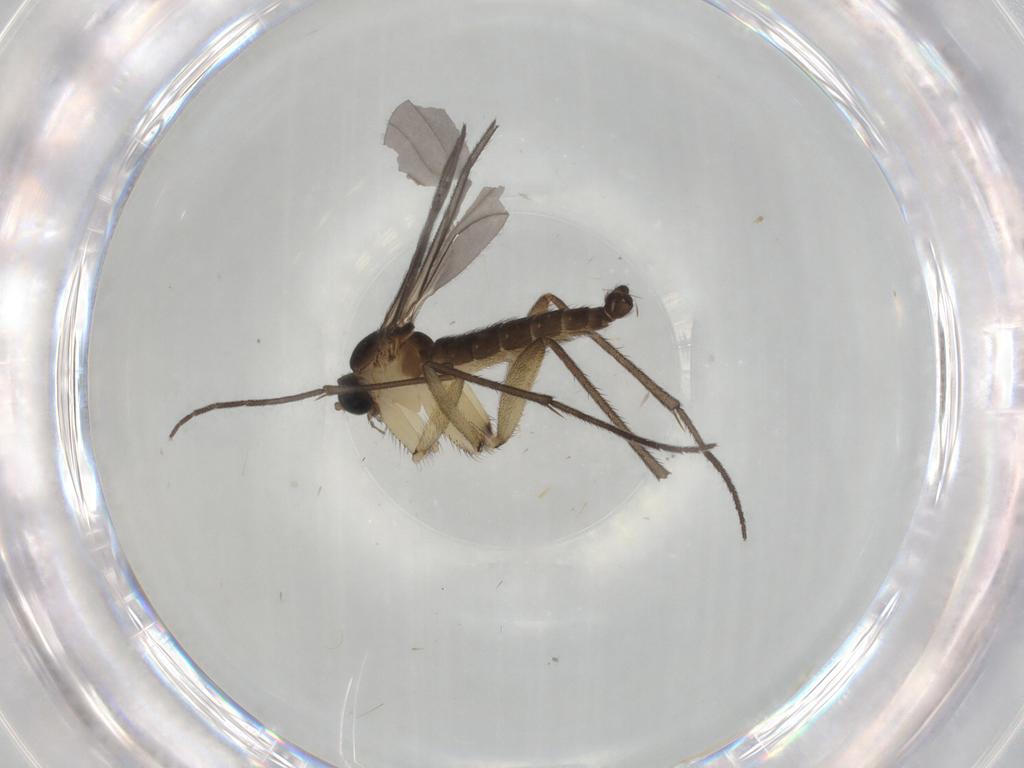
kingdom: Animalia
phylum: Arthropoda
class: Insecta
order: Diptera
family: Sciaridae
